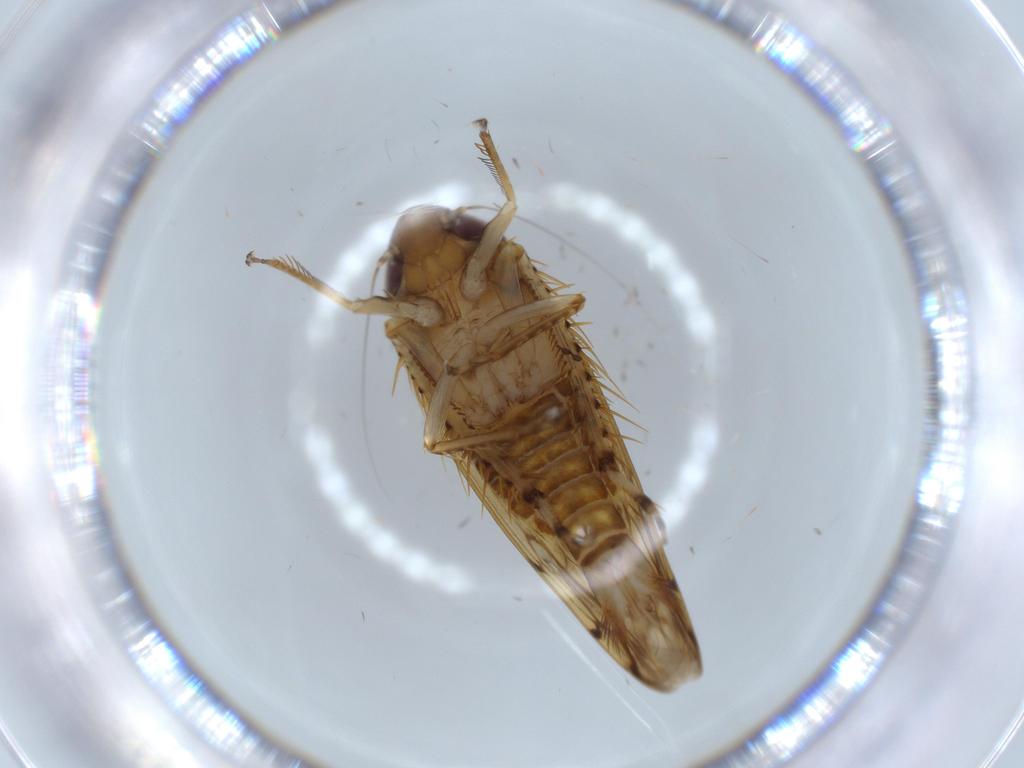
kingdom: Animalia
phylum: Arthropoda
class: Insecta
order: Hemiptera
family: Cicadellidae
